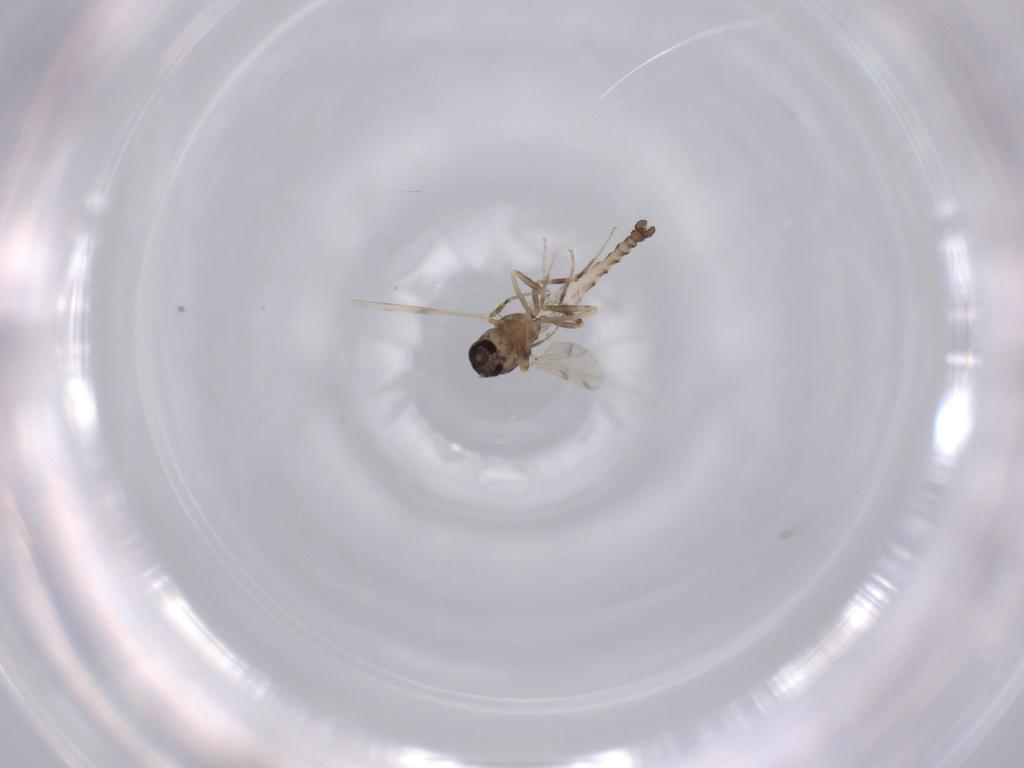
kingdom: Animalia
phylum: Arthropoda
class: Insecta
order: Diptera
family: Ceratopogonidae
